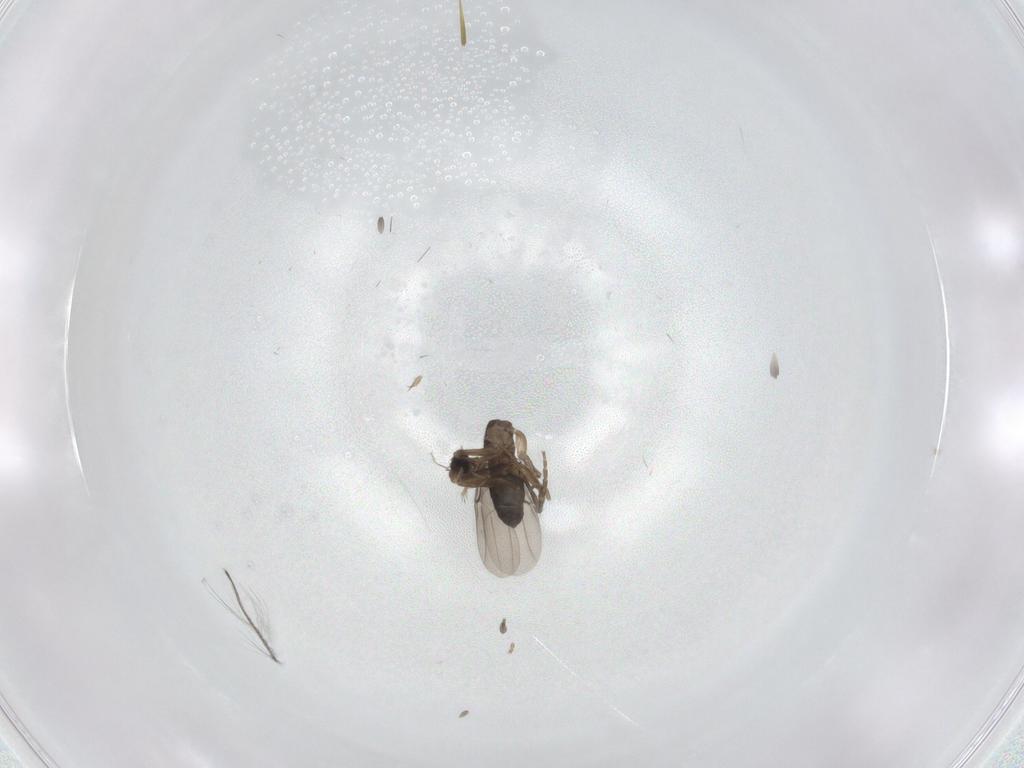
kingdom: Animalia
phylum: Arthropoda
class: Insecta
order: Diptera
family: Phoridae
